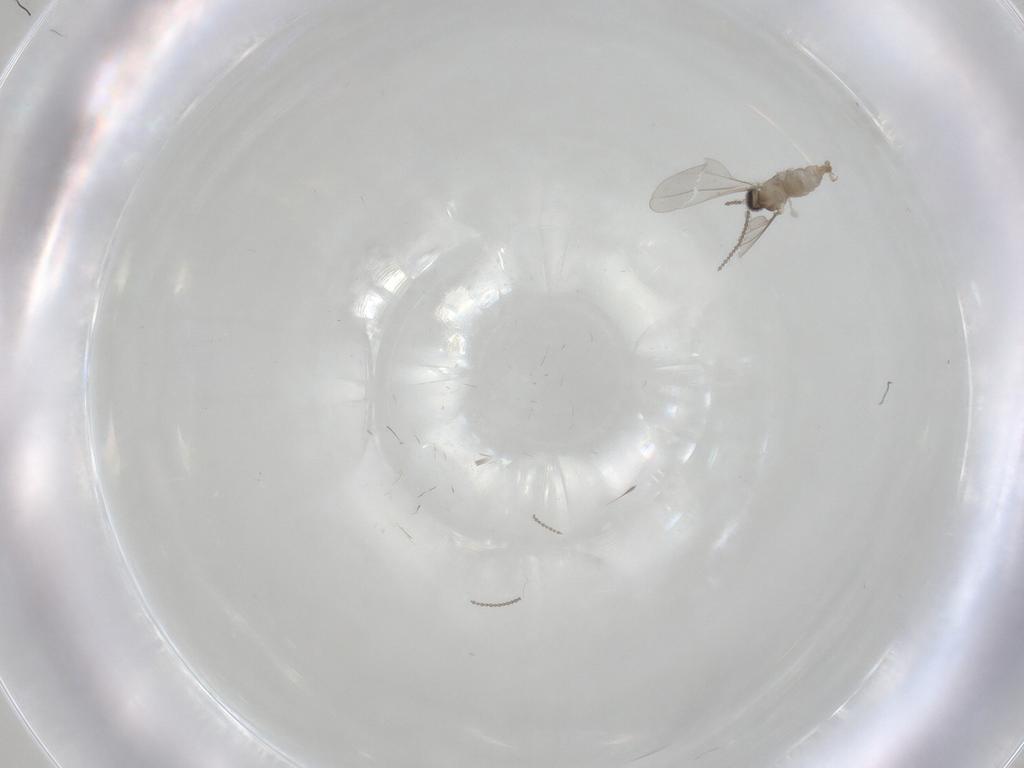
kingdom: Animalia
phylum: Arthropoda
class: Insecta
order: Diptera
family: Cecidomyiidae
